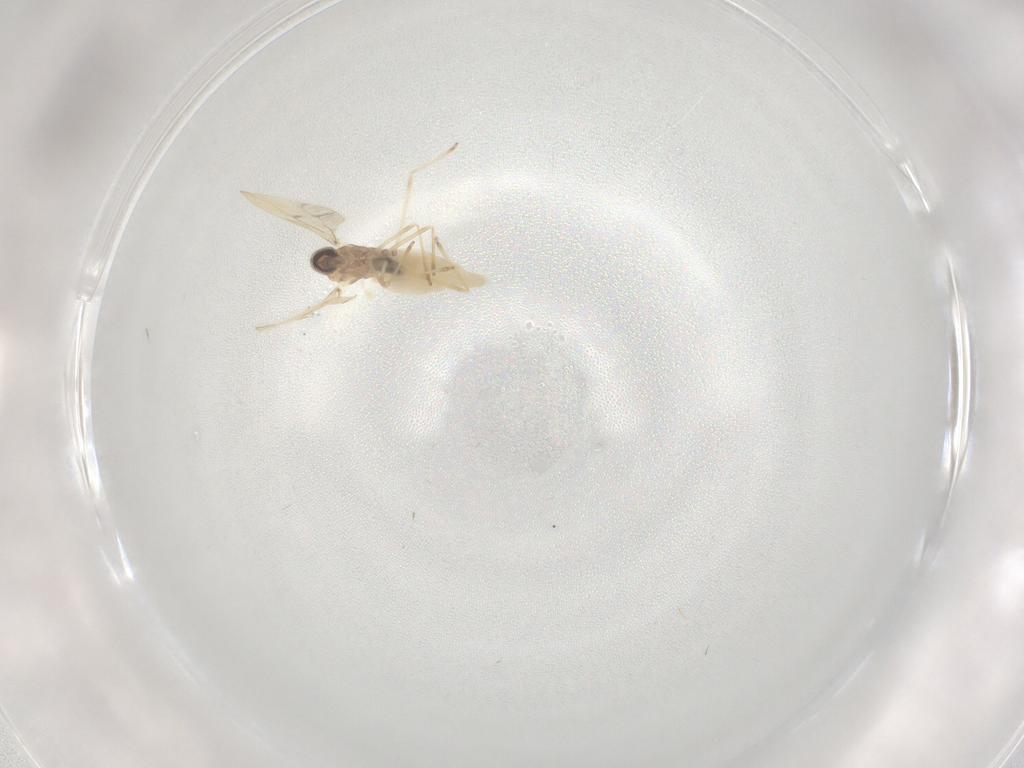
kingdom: Animalia
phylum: Arthropoda
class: Insecta
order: Diptera
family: Cecidomyiidae
